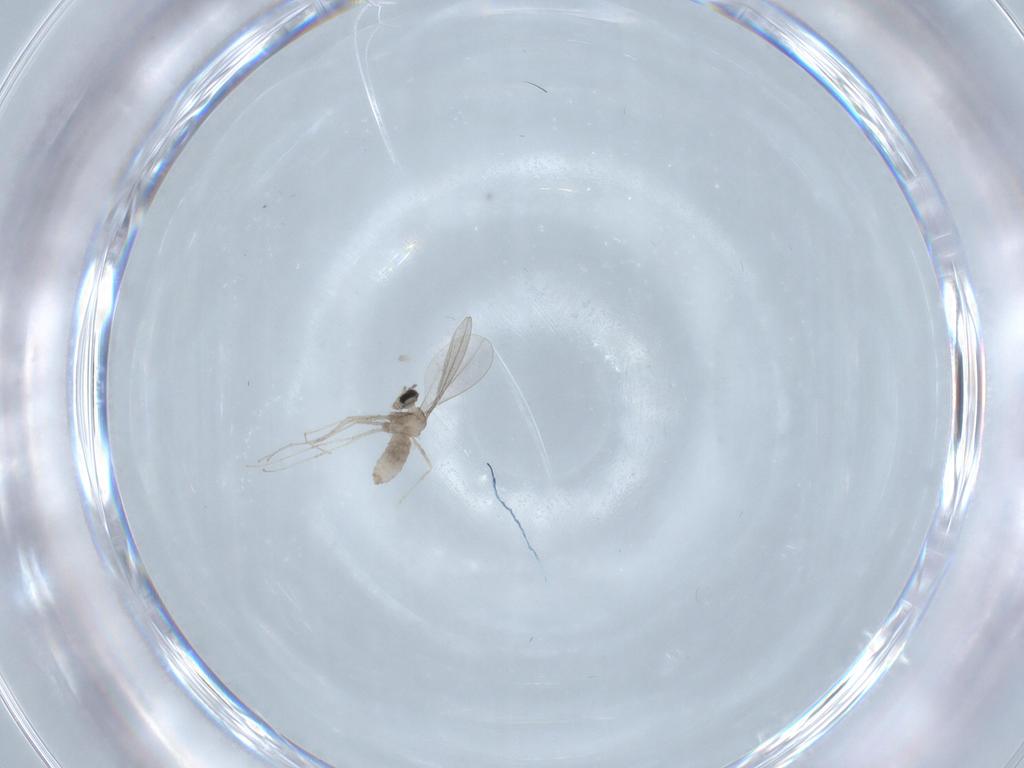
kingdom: Animalia
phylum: Arthropoda
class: Insecta
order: Diptera
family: Cecidomyiidae
